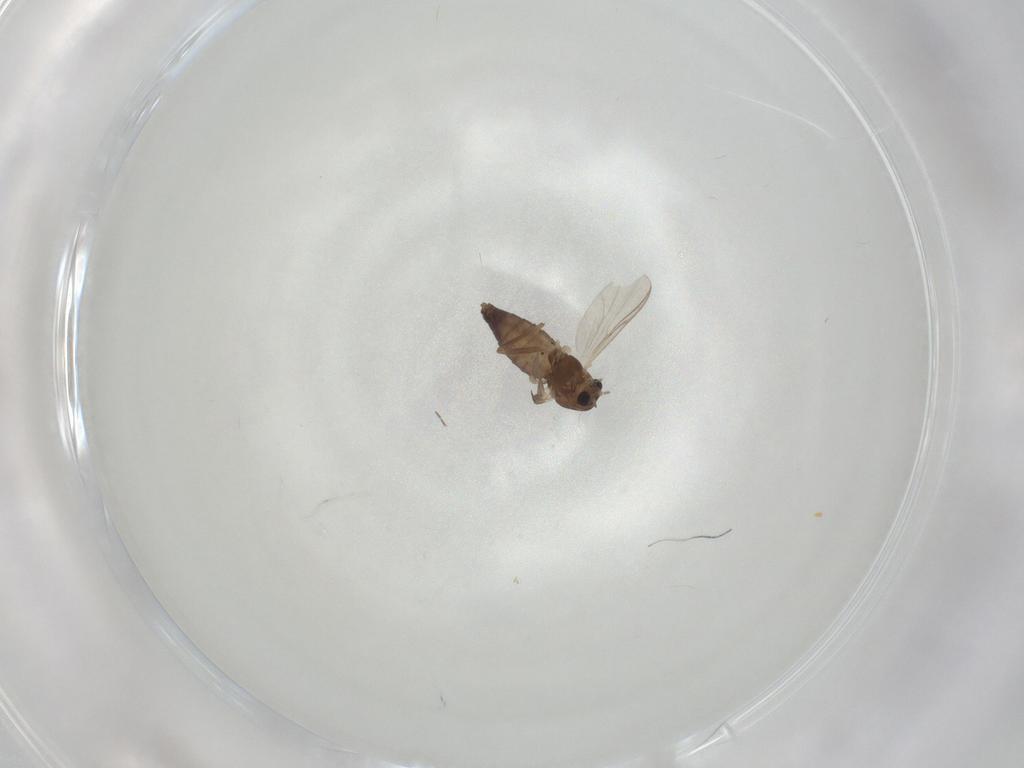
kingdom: Animalia
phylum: Arthropoda
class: Insecta
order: Diptera
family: Chironomidae
